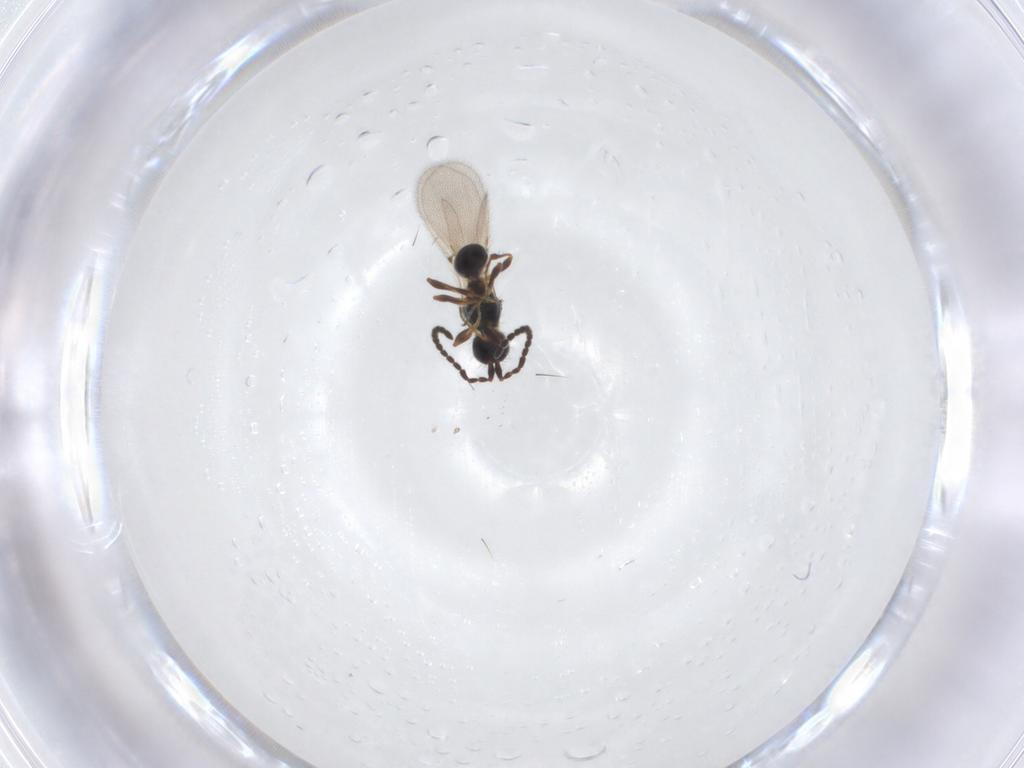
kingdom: Animalia
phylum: Arthropoda
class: Insecta
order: Hymenoptera
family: Diapriidae
